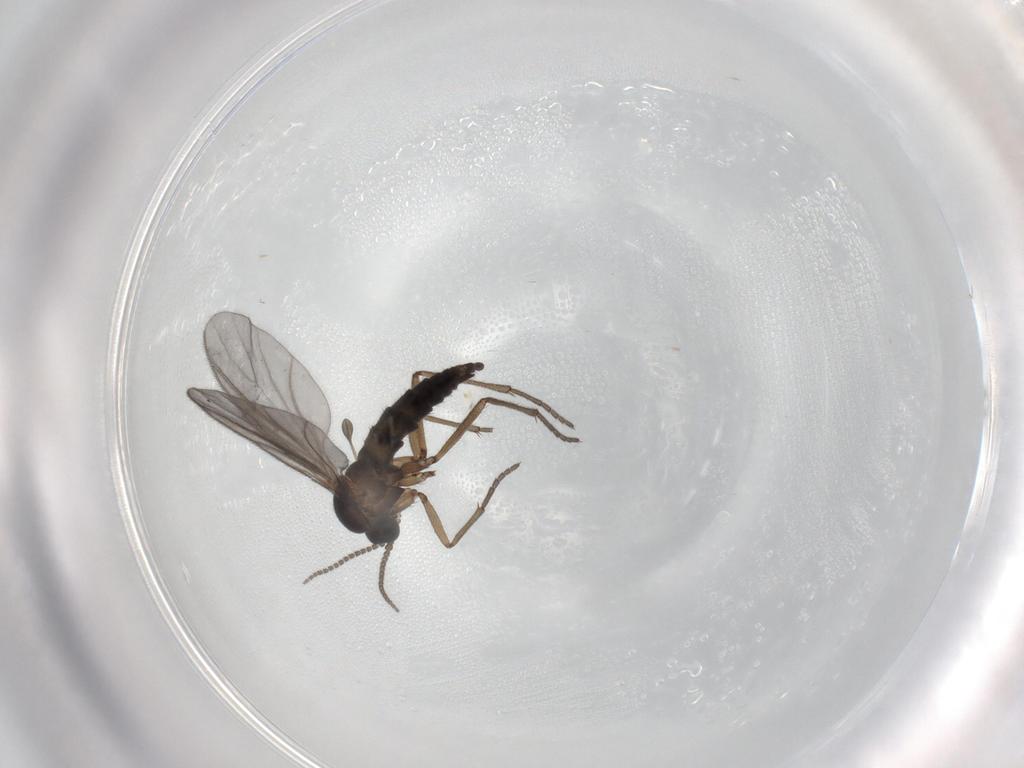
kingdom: Animalia
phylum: Arthropoda
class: Insecta
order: Diptera
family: Sciaridae
